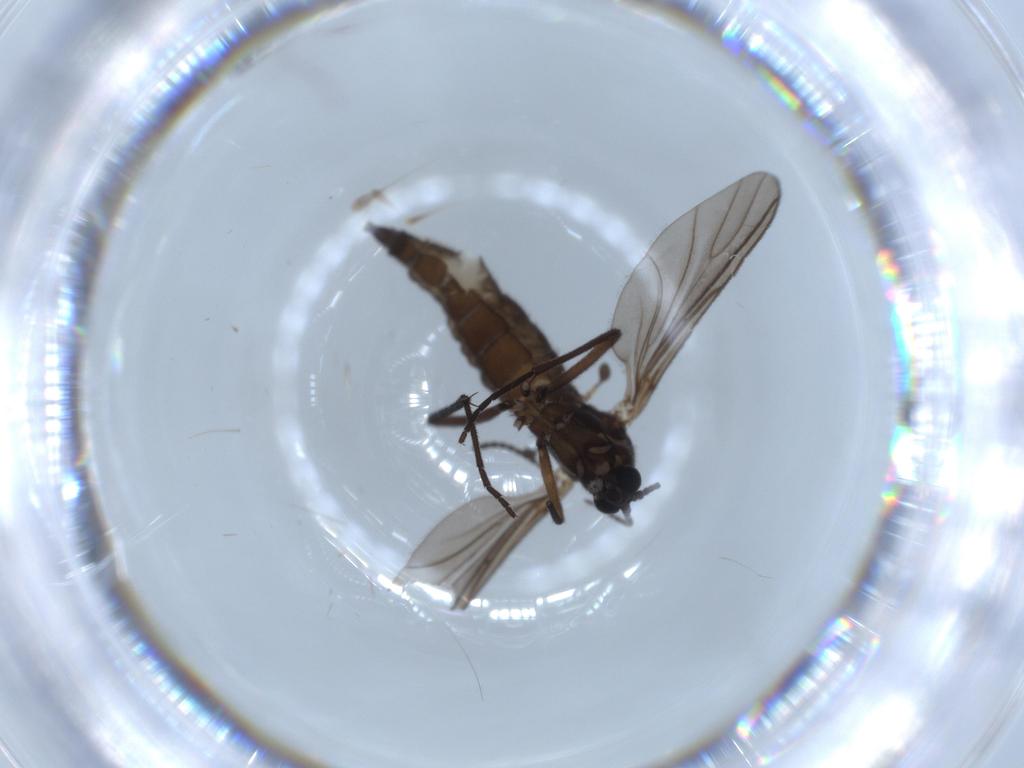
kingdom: Animalia
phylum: Arthropoda
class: Insecta
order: Diptera
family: Sciaridae
